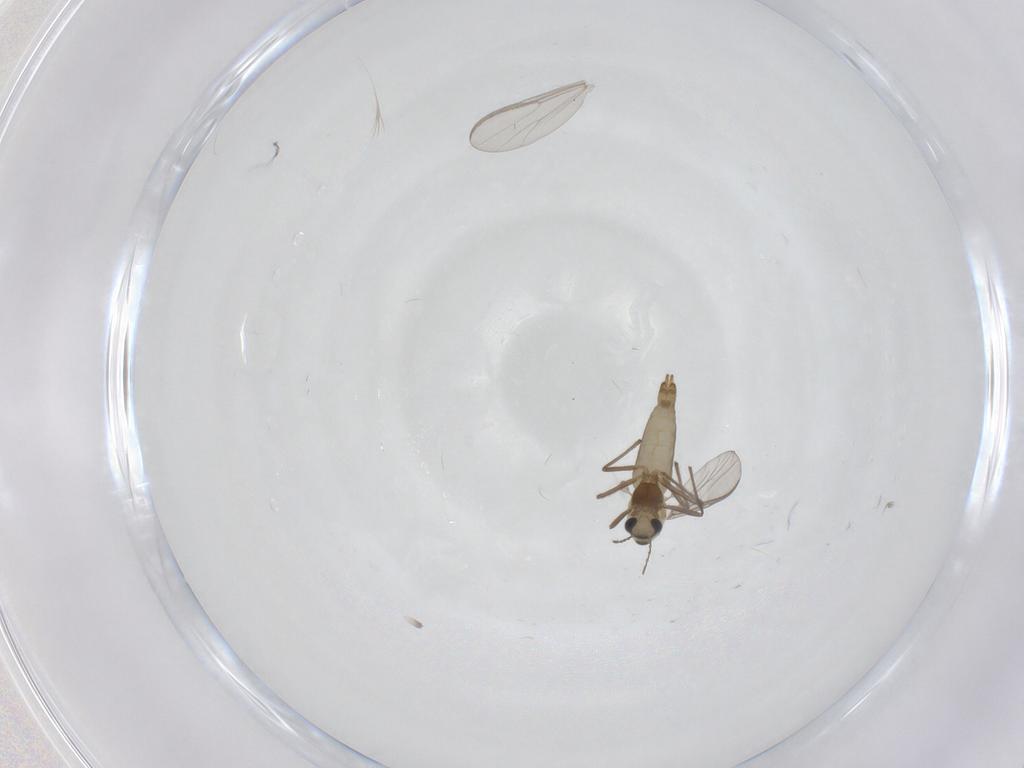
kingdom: Animalia
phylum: Arthropoda
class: Insecta
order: Diptera
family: Chironomidae
